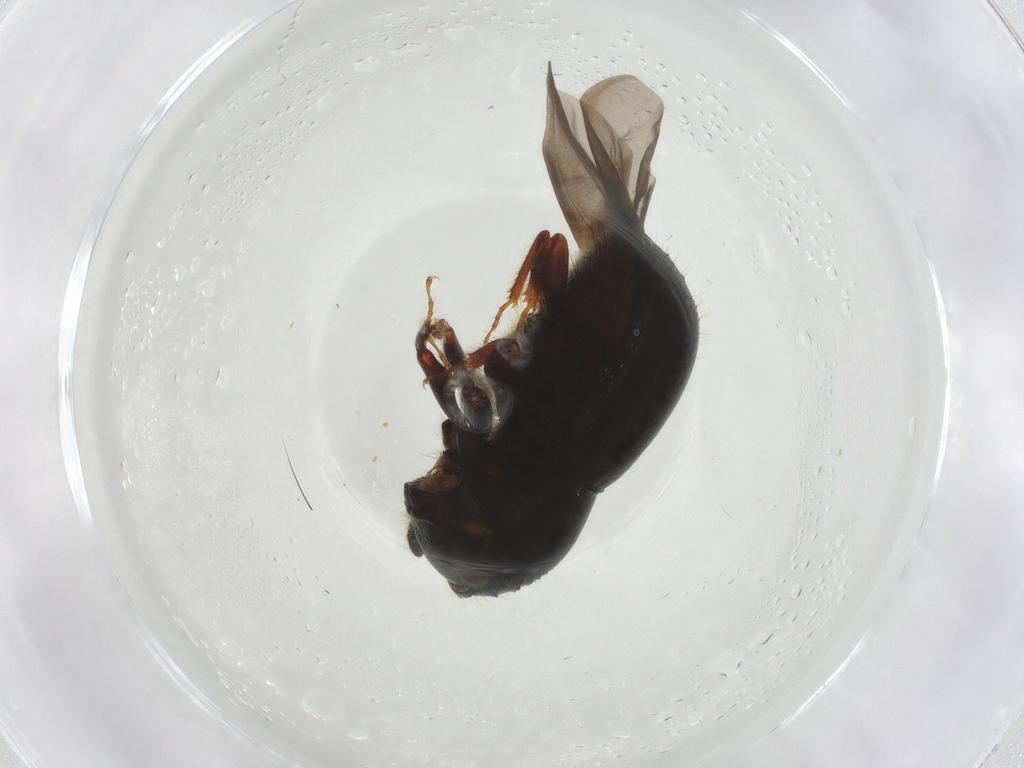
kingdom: Animalia
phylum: Arthropoda
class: Insecta
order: Coleoptera
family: Curculionidae
